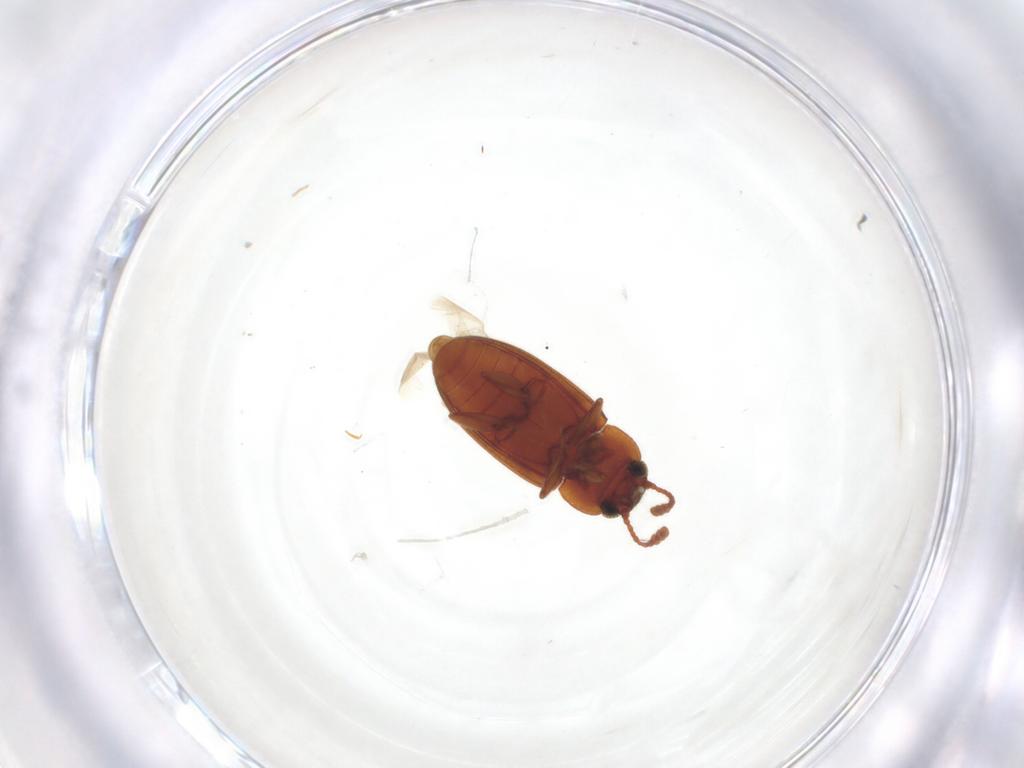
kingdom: Animalia
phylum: Arthropoda
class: Insecta
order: Coleoptera
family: Erotylidae
